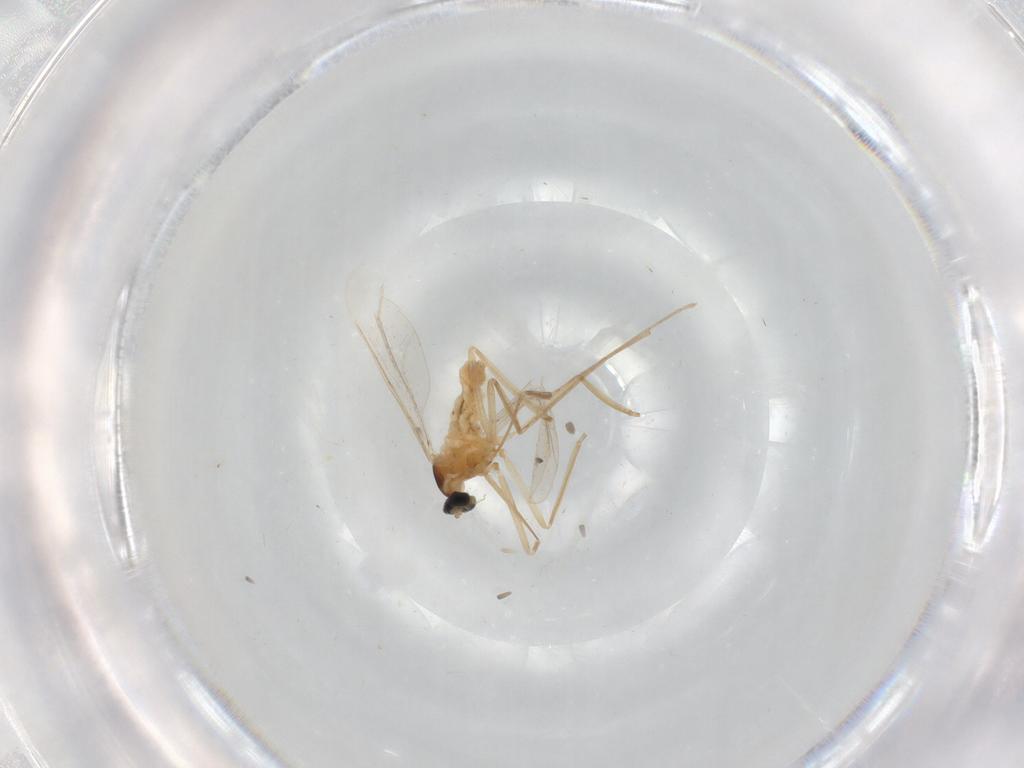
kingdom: Animalia
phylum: Arthropoda
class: Insecta
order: Diptera
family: Cecidomyiidae
